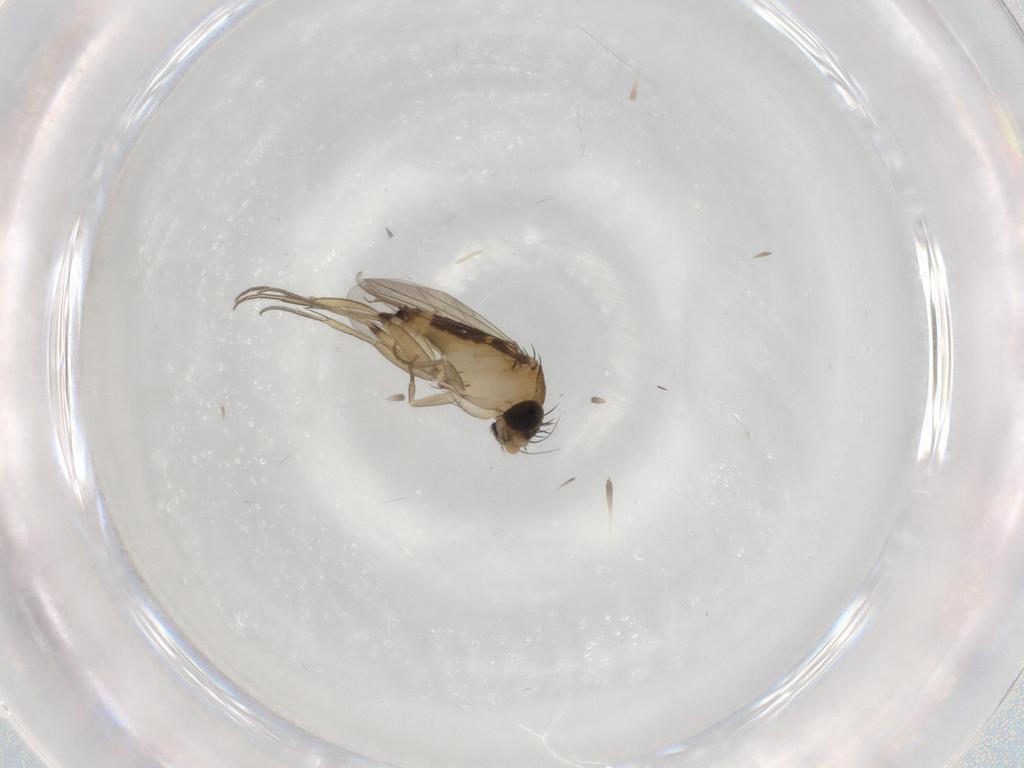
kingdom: Animalia
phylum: Arthropoda
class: Insecta
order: Diptera
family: Phoridae
